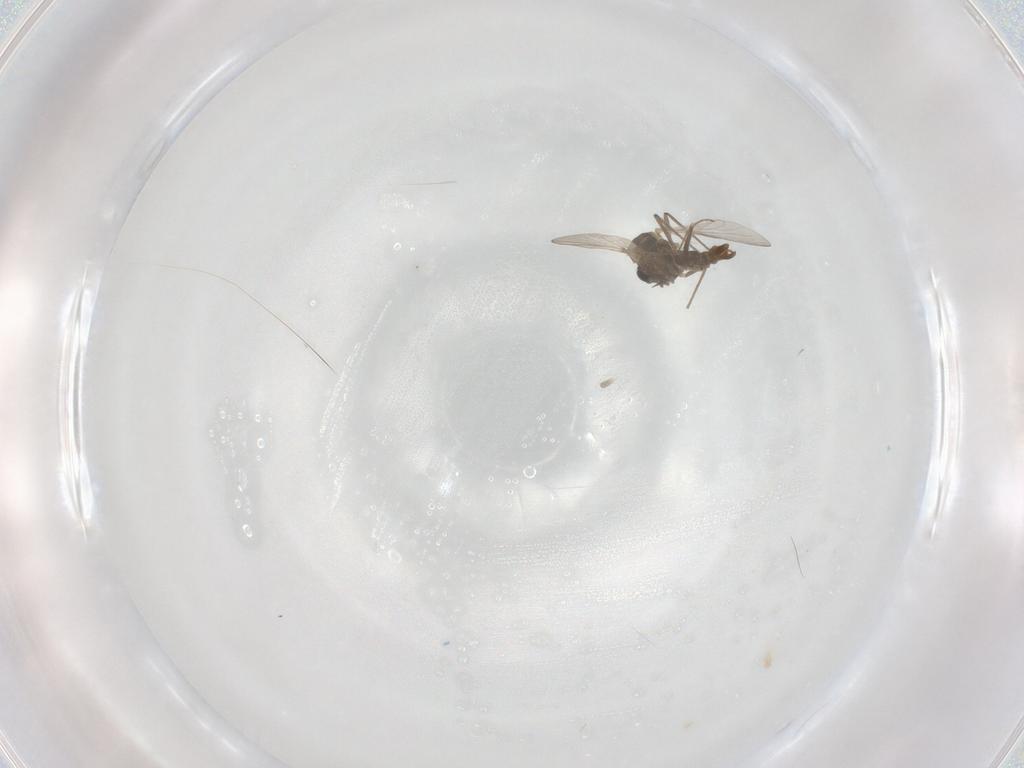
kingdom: Animalia
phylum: Arthropoda
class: Insecta
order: Diptera
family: Chironomidae
